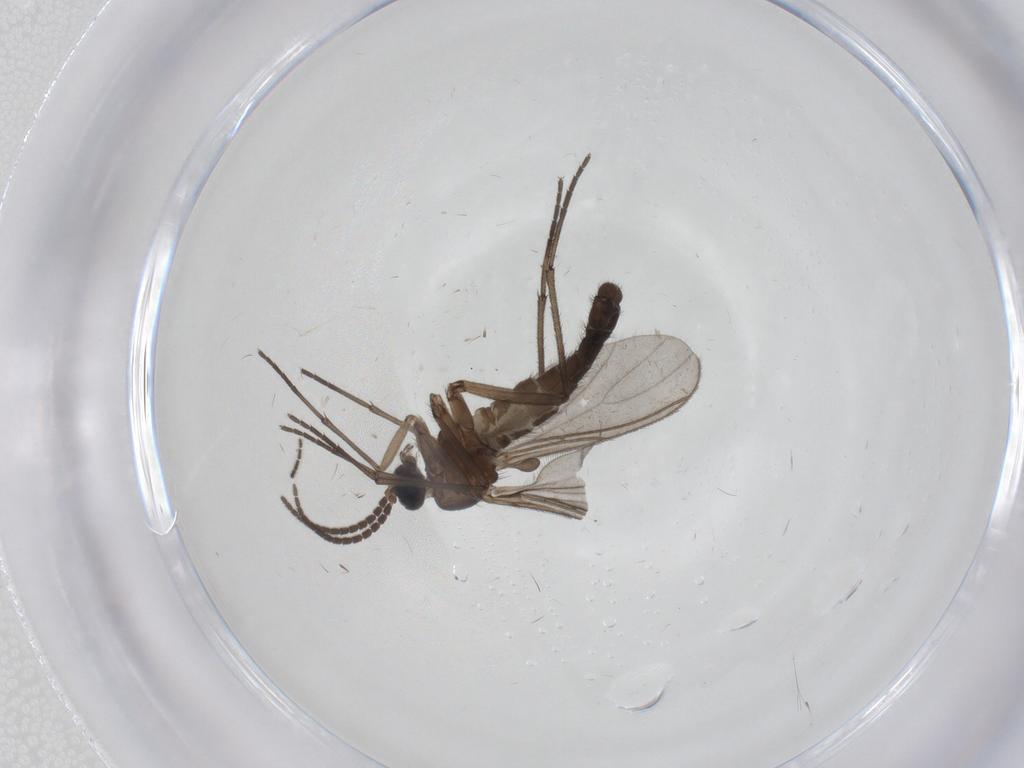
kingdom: Animalia
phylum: Arthropoda
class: Insecta
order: Diptera
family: Sciaridae
